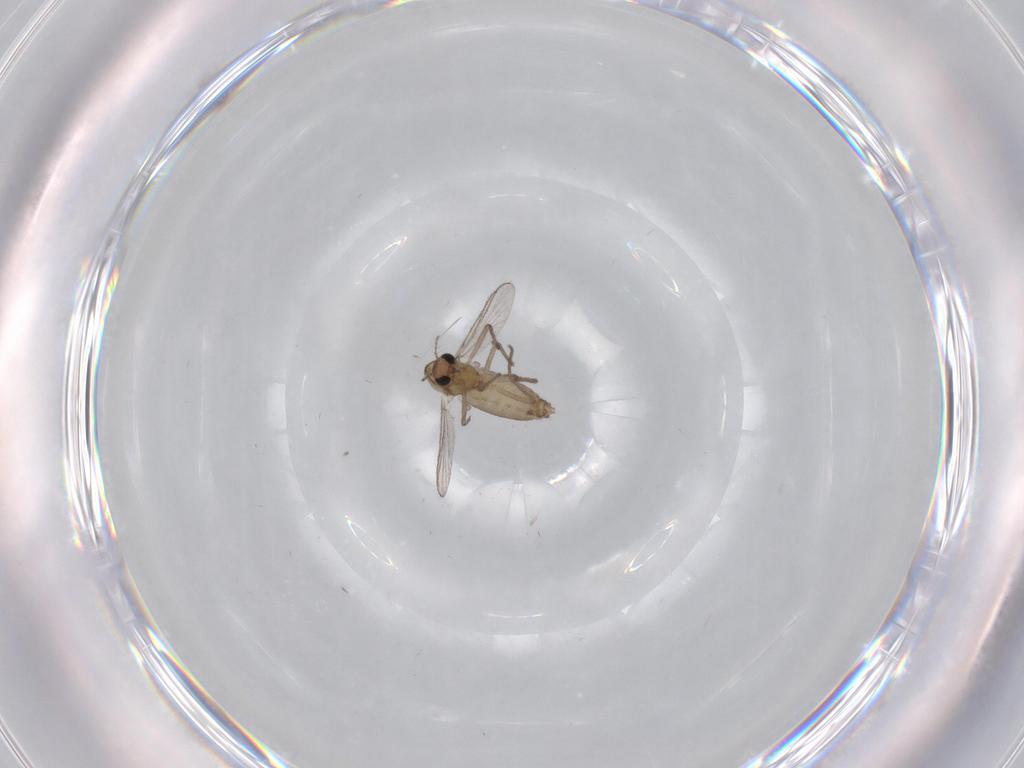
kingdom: Animalia
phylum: Arthropoda
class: Insecta
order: Diptera
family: Chironomidae
